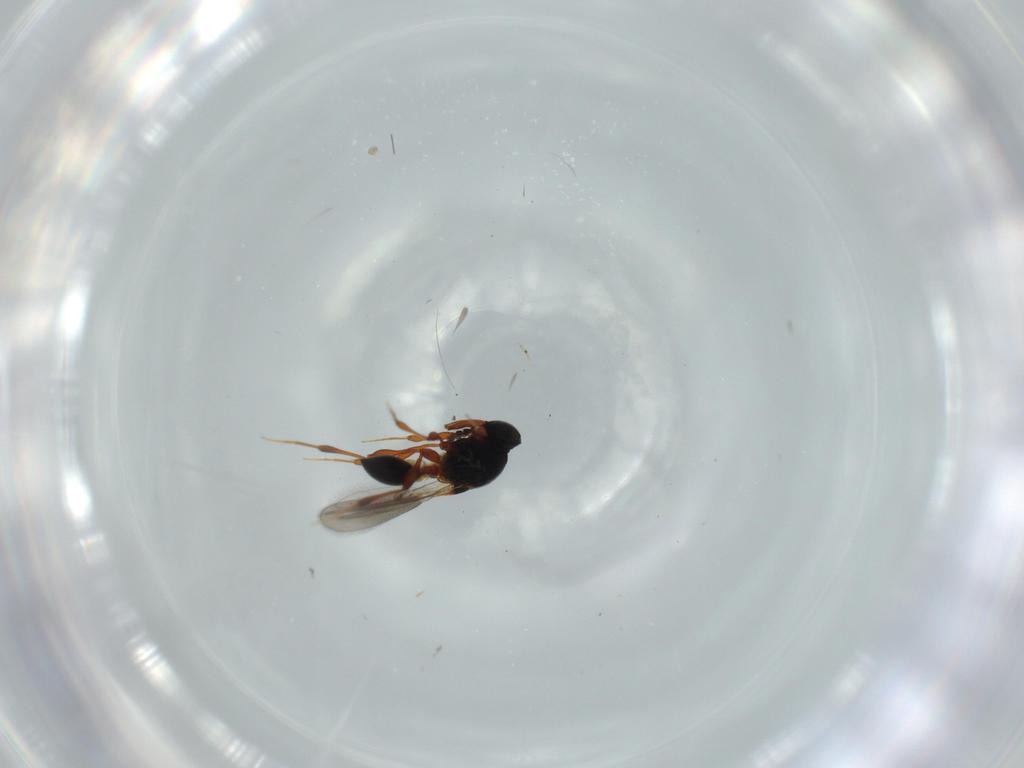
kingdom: Animalia
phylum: Arthropoda
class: Insecta
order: Hymenoptera
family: Platygastridae
